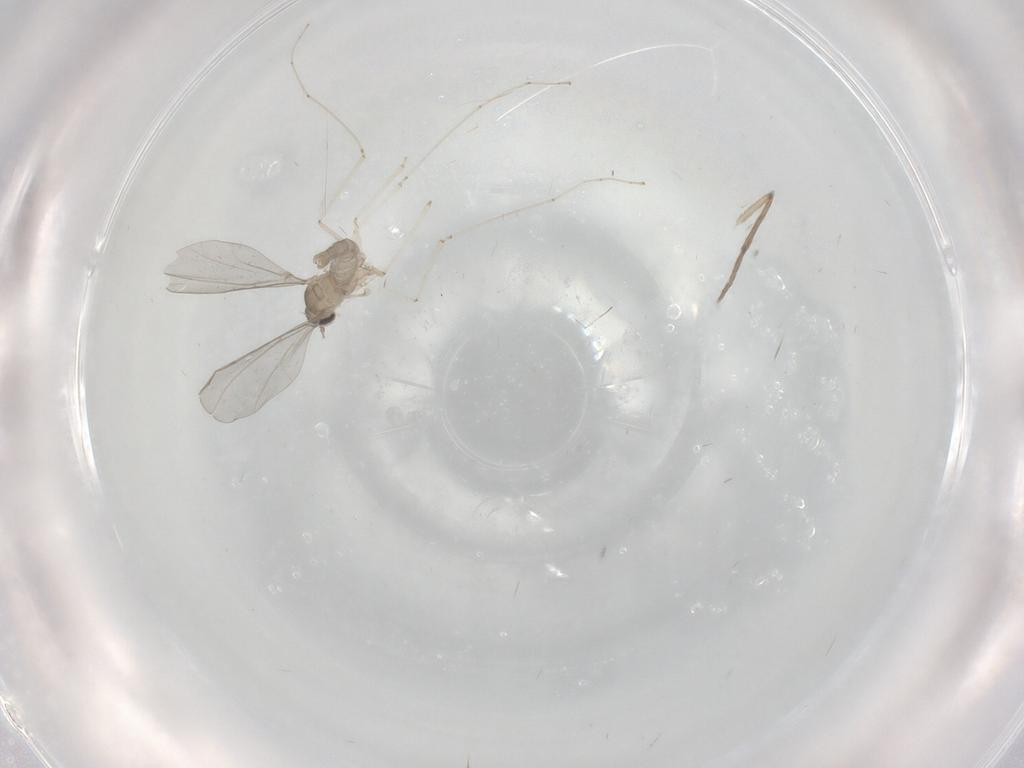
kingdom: Animalia
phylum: Arthropoda
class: Insecta
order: Diptera
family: Psychodidae
